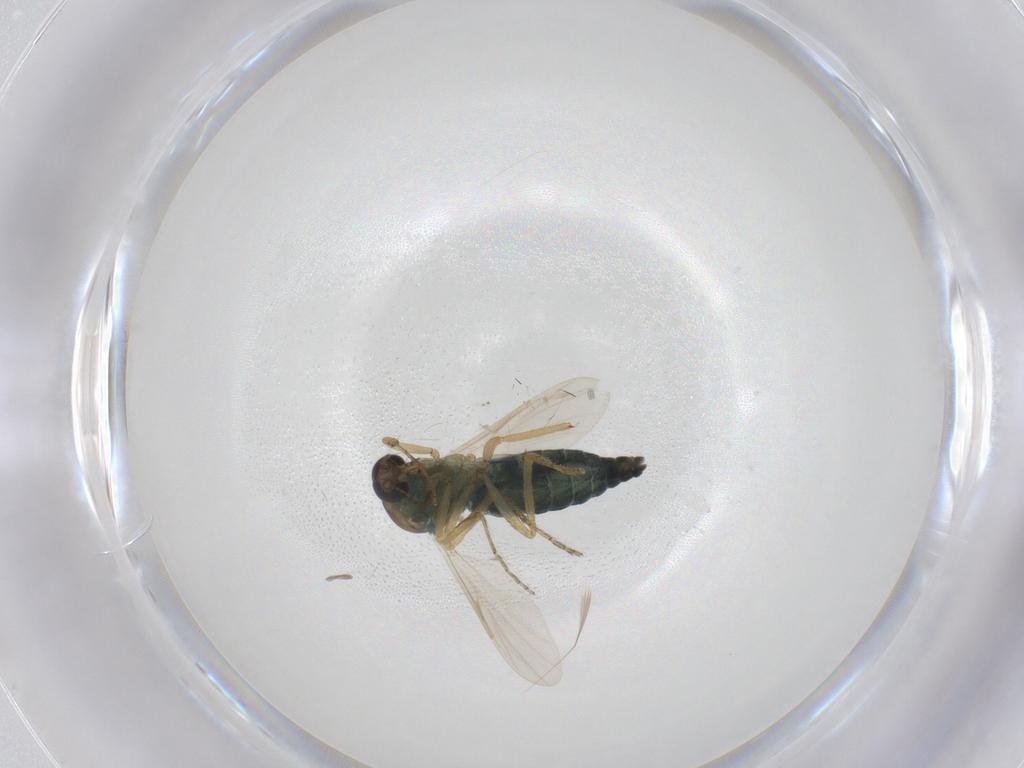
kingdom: Animalia
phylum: Arthropoda
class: Insecta
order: Diptera
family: Ceratopogonidae
